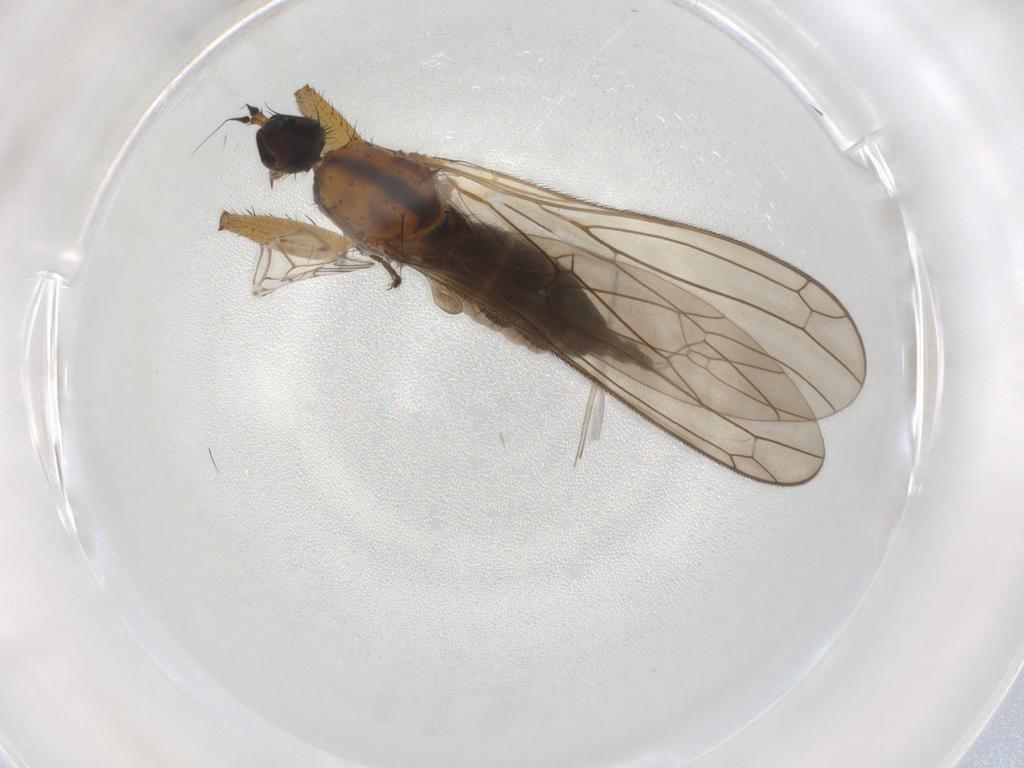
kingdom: Animalia
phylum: Arthropoda
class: Insecta
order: Diptera
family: Empididae
